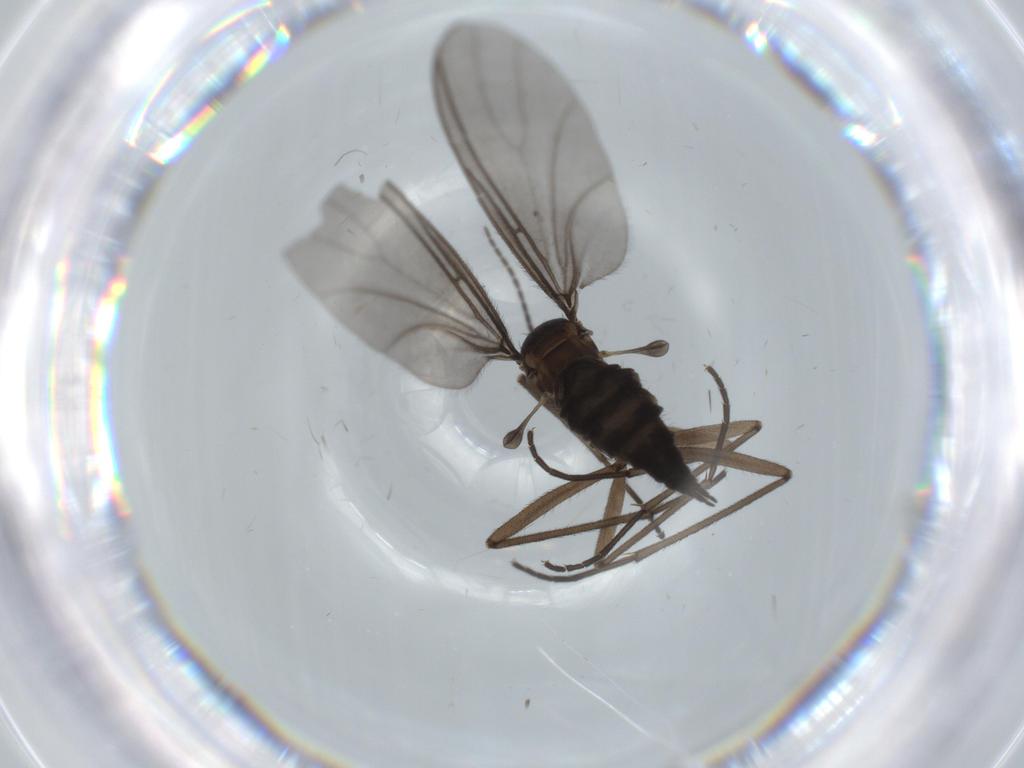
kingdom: Animalia
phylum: Arthropoda
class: Insecta
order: Diptera
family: Sciaridae
